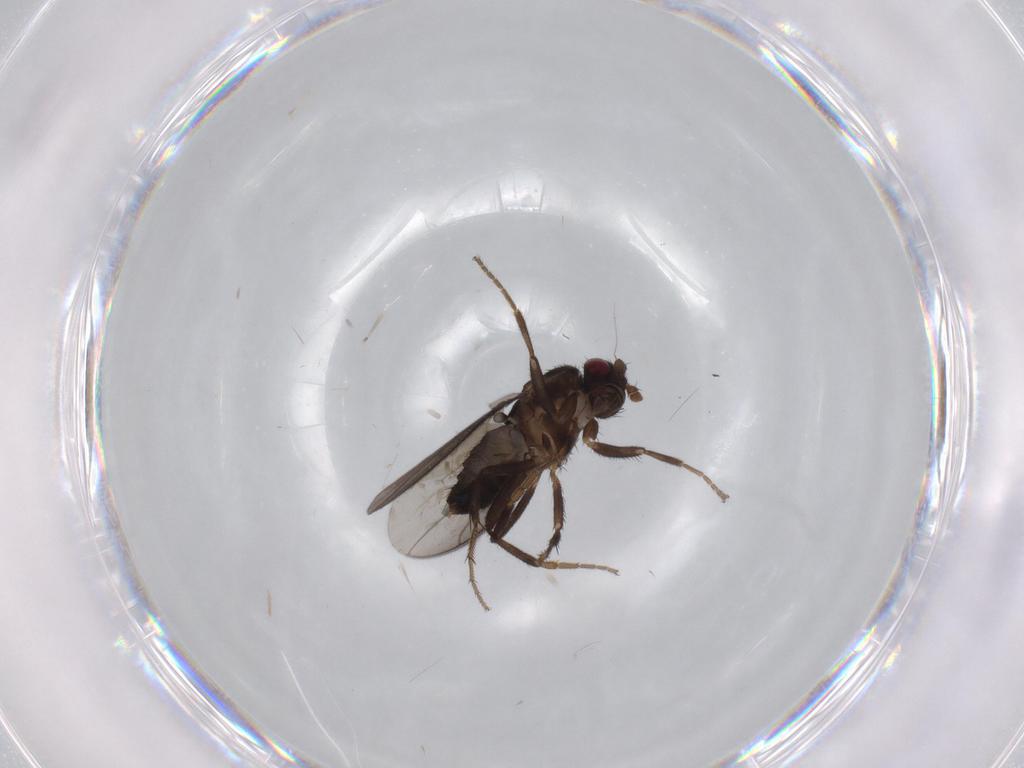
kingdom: Animalia
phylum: Arthropoda
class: Insecta
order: Diptera
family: Sphaeroceridae
